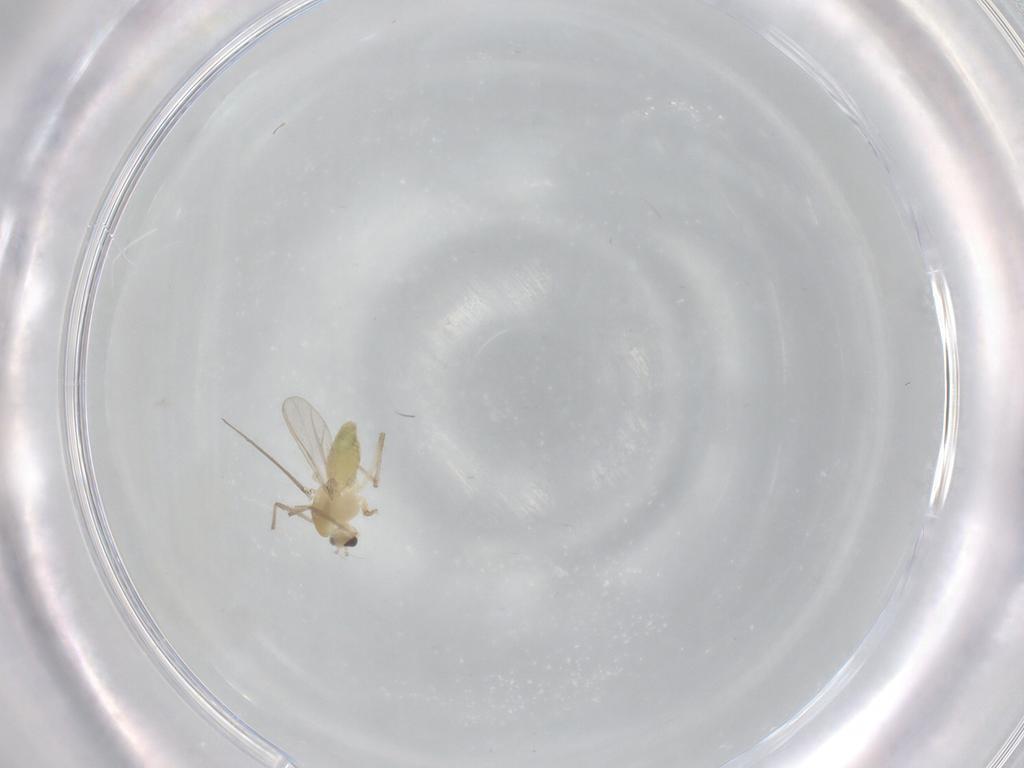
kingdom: Animalia
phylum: Arthropoda
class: Insecta
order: Diptera
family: Chironomidae
